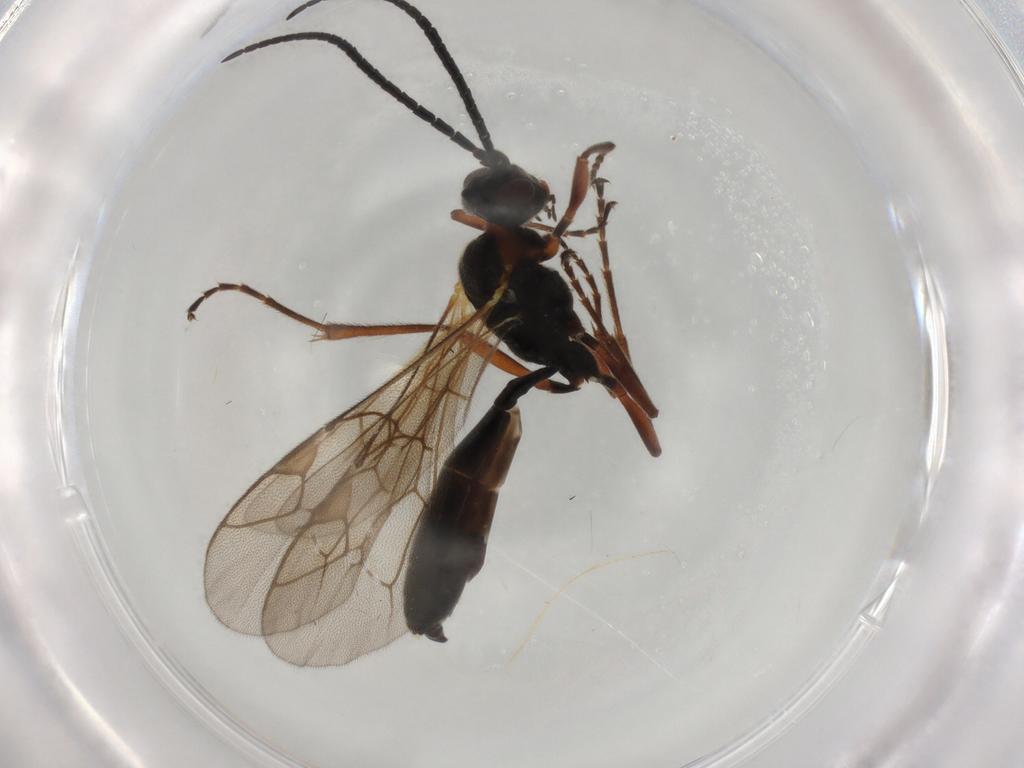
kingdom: Animalia
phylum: Arthropoda
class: Insecta
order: Hymenoptera
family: Ichneumonidae
